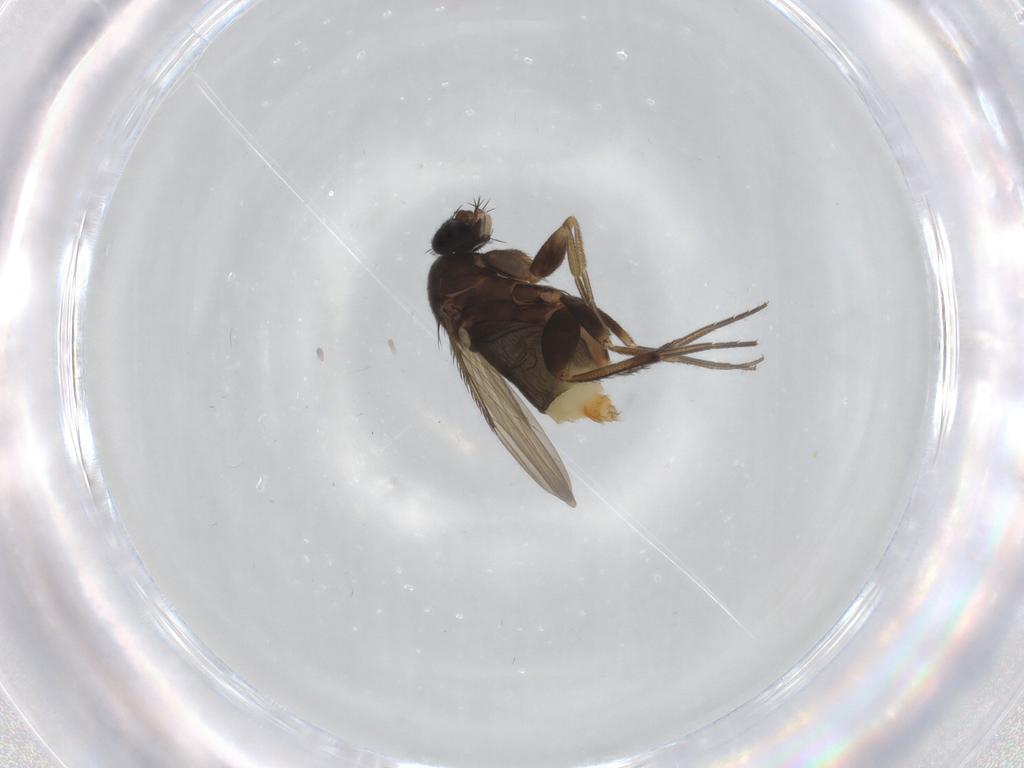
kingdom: Animalia
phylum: Arthropoda
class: Insecta
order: Diptera
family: Phoridae
